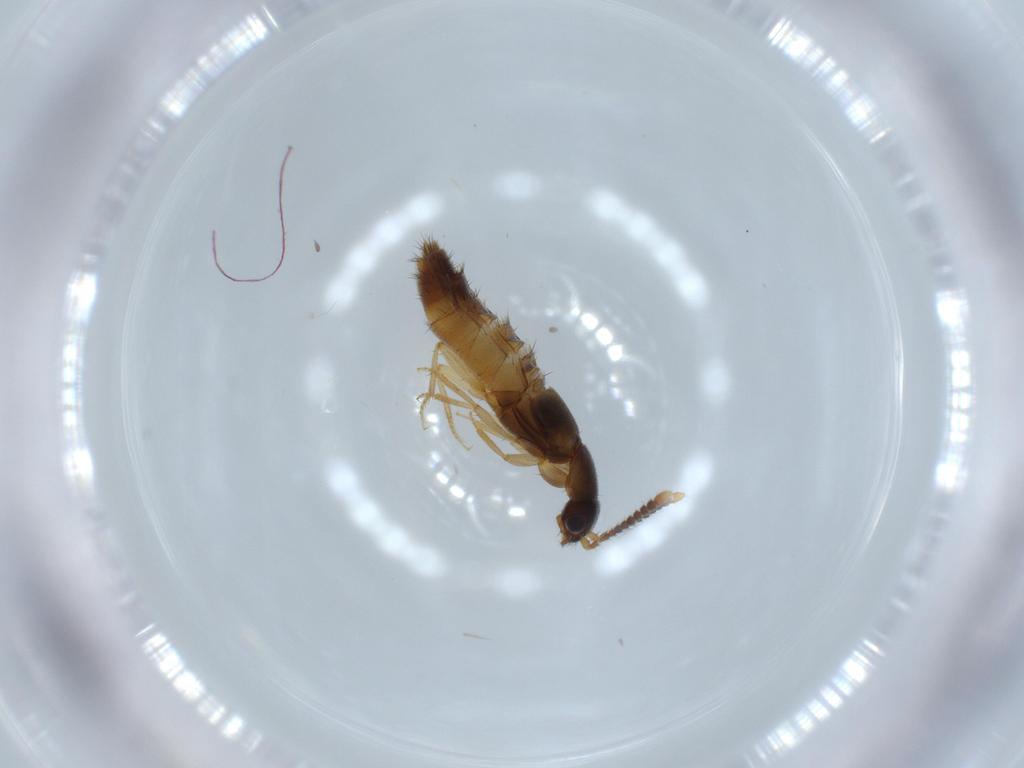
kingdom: Animalia
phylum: Arthropoda
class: Insecta
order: Coleoptera
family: Staphylinidae
